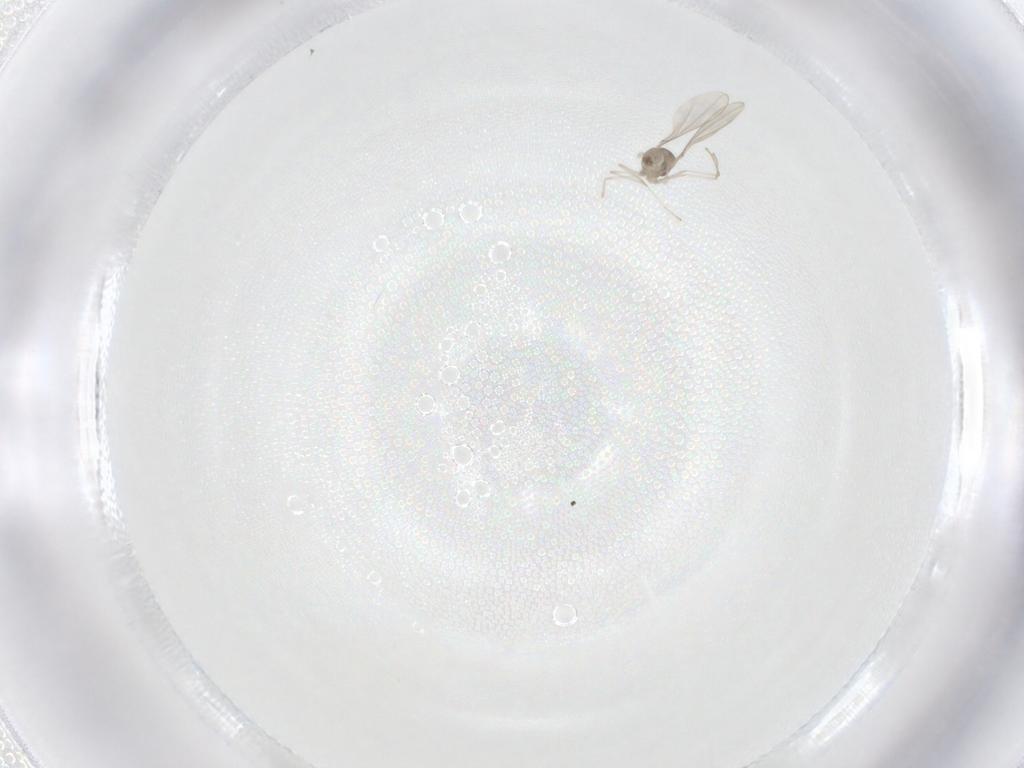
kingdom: Animalia
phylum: Arthropoda
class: Insecta
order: Diptera
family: Cecidomyiidae
